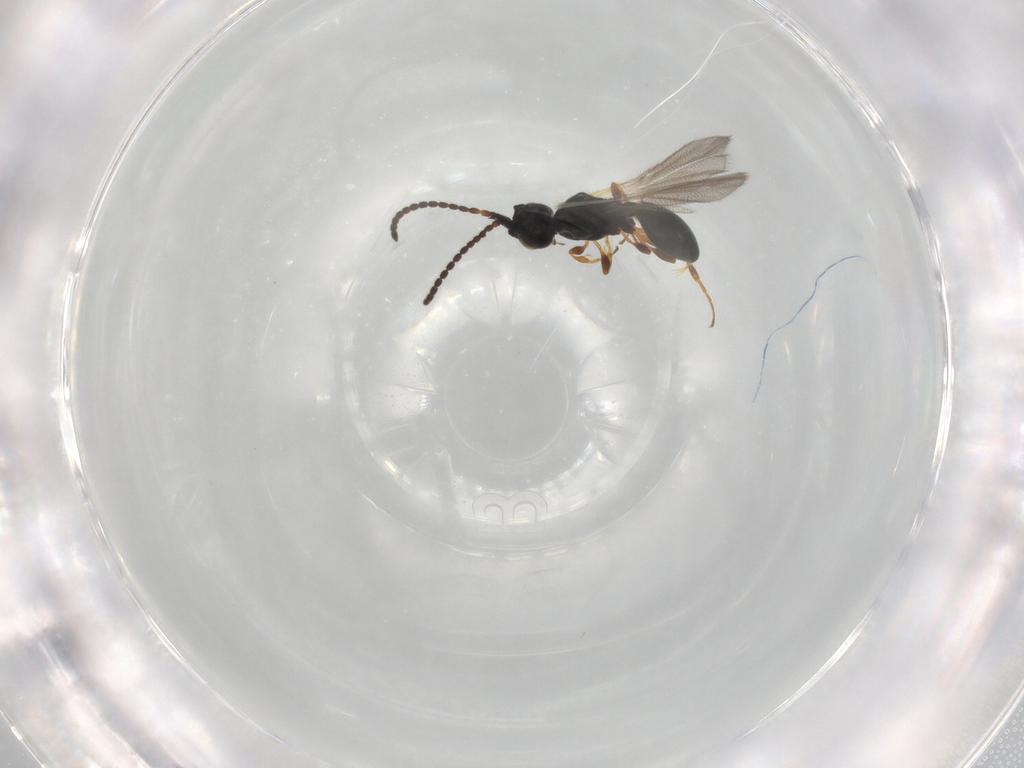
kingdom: Animalia
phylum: Arthropoda
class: Insecta
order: Hymenoptera
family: Diapriidae
